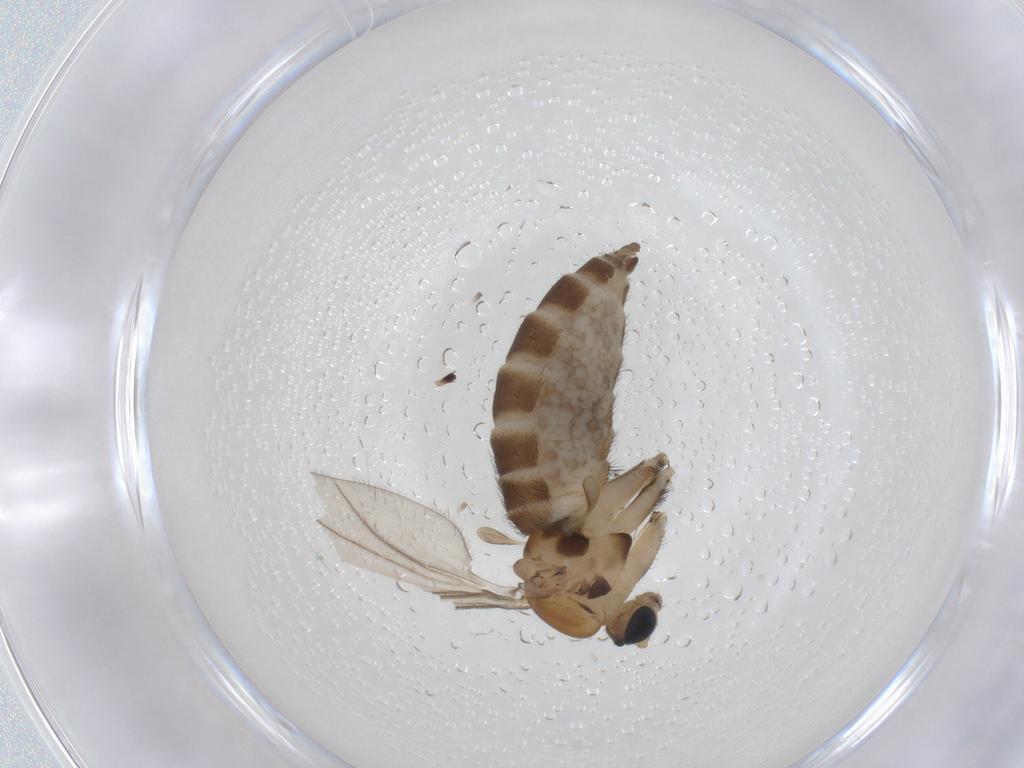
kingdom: Animalia
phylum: Arthropoda
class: Insecta
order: Diptera
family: Sciaridae
